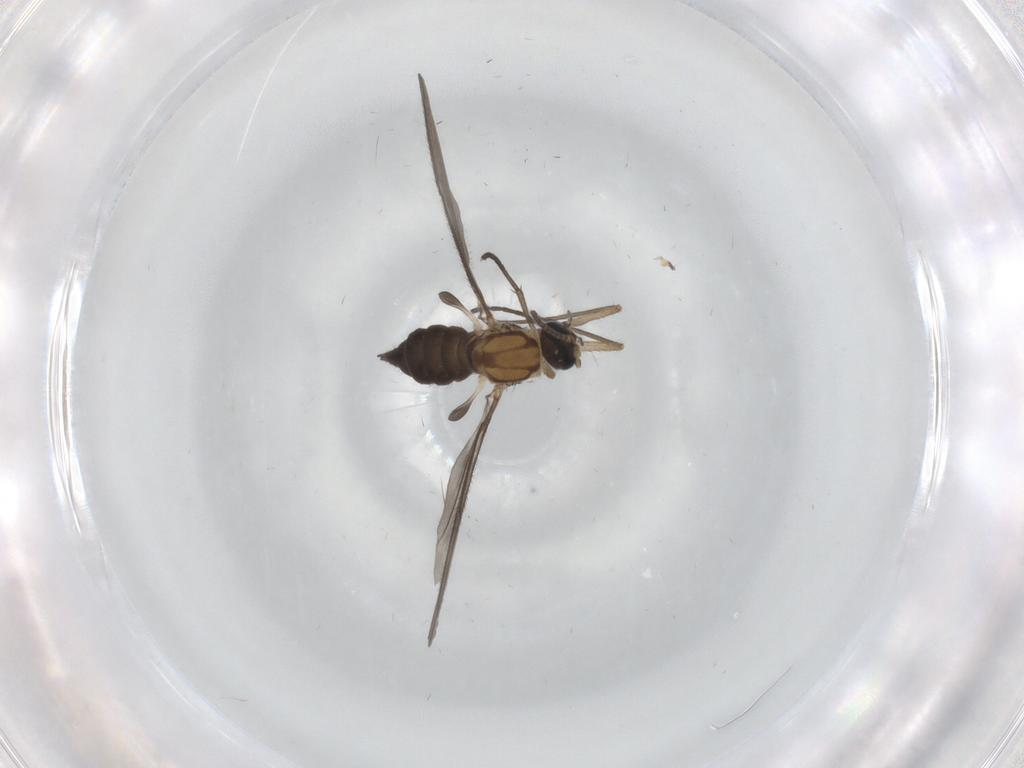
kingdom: Animalia
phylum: Arthropoda
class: Insecta
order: Diptera
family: Sciaridae
